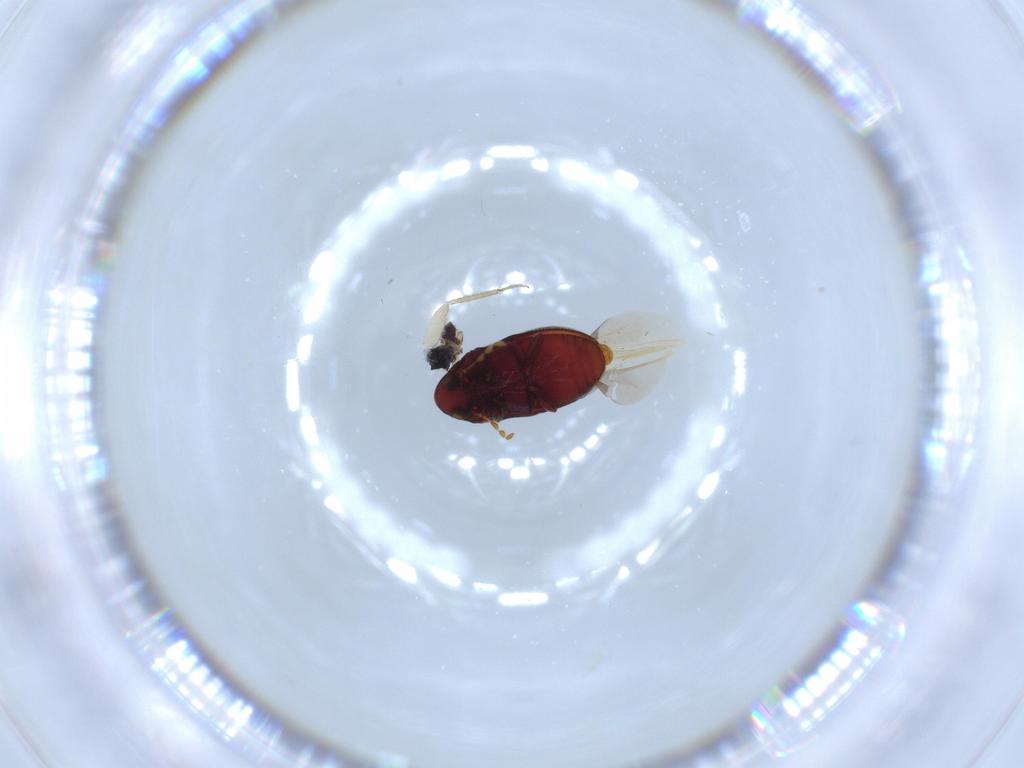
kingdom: Animalia
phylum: Arthropoda
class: Insecta
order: Coleoptera
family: Ptinidae
